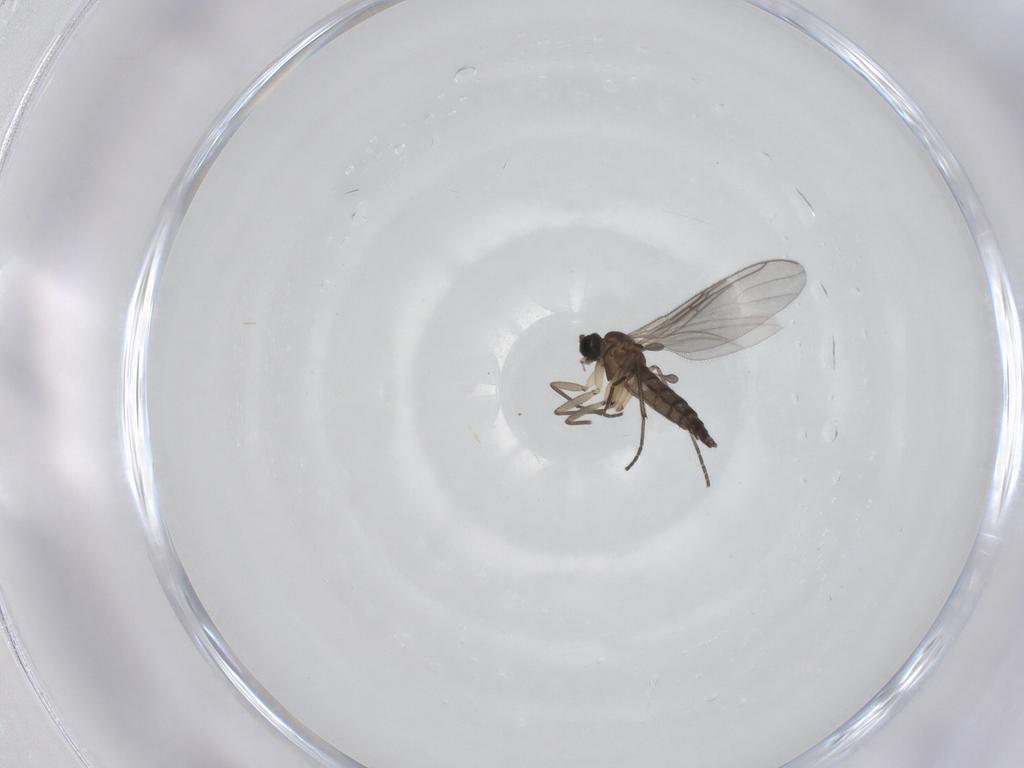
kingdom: Animalia
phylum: Arthropoda
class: Insecta
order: Diptera
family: Sciaridae
